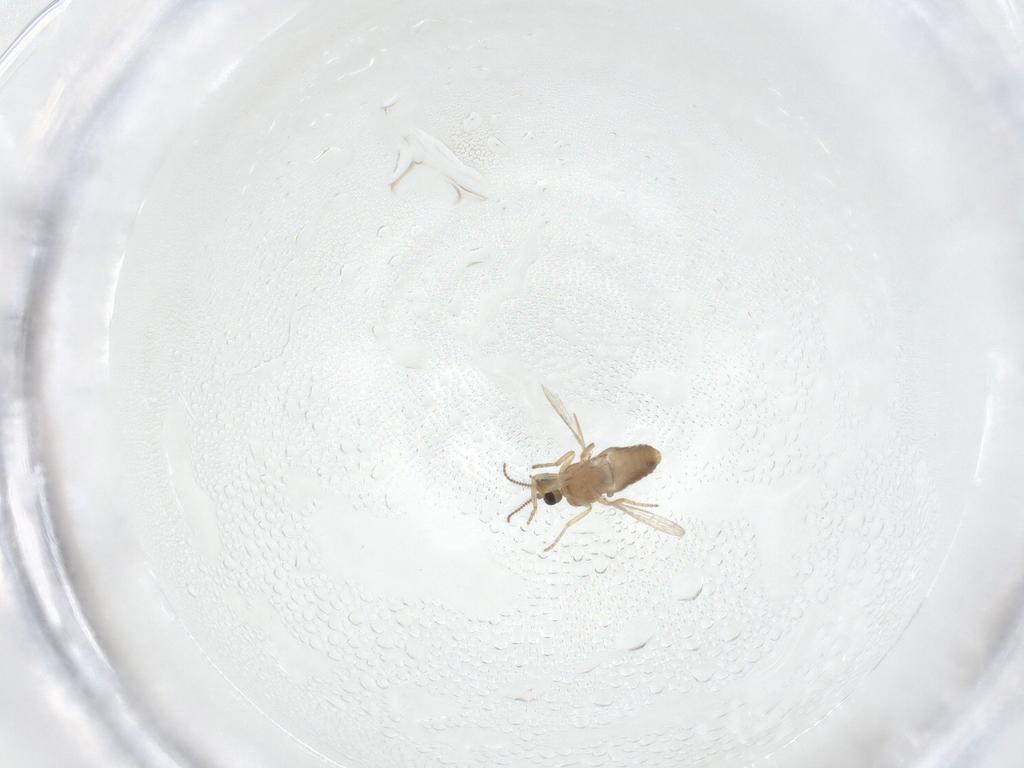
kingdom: Animalia
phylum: Arthropoda
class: Insecta
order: Diptera
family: Ceratopogonidae
